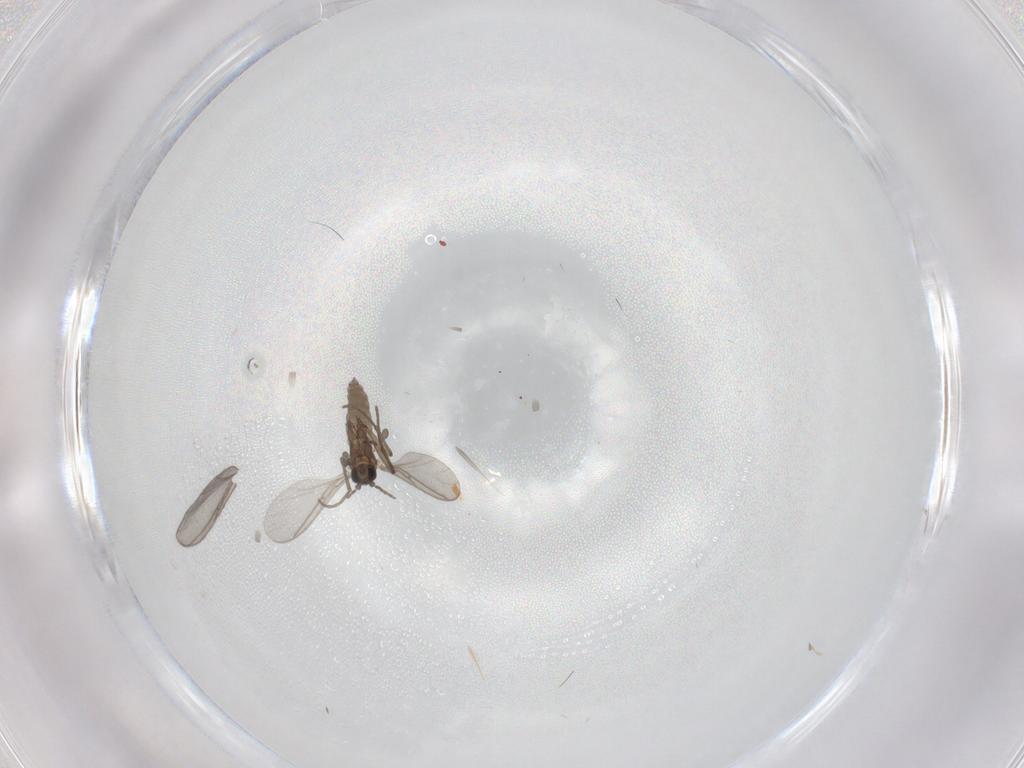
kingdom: Animalia
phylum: Arthropoda
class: Insecta
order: Diptera
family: Sciaridae
